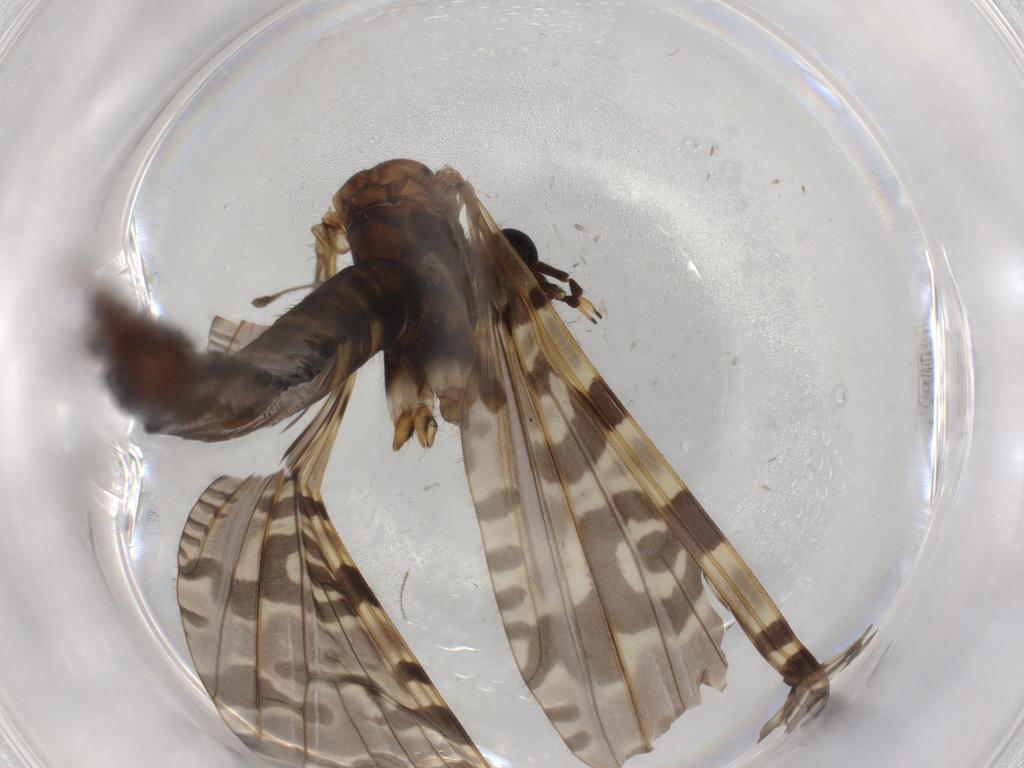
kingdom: Animalia
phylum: Arthropoda
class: Insecta
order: Diptera
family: Limoniidae
